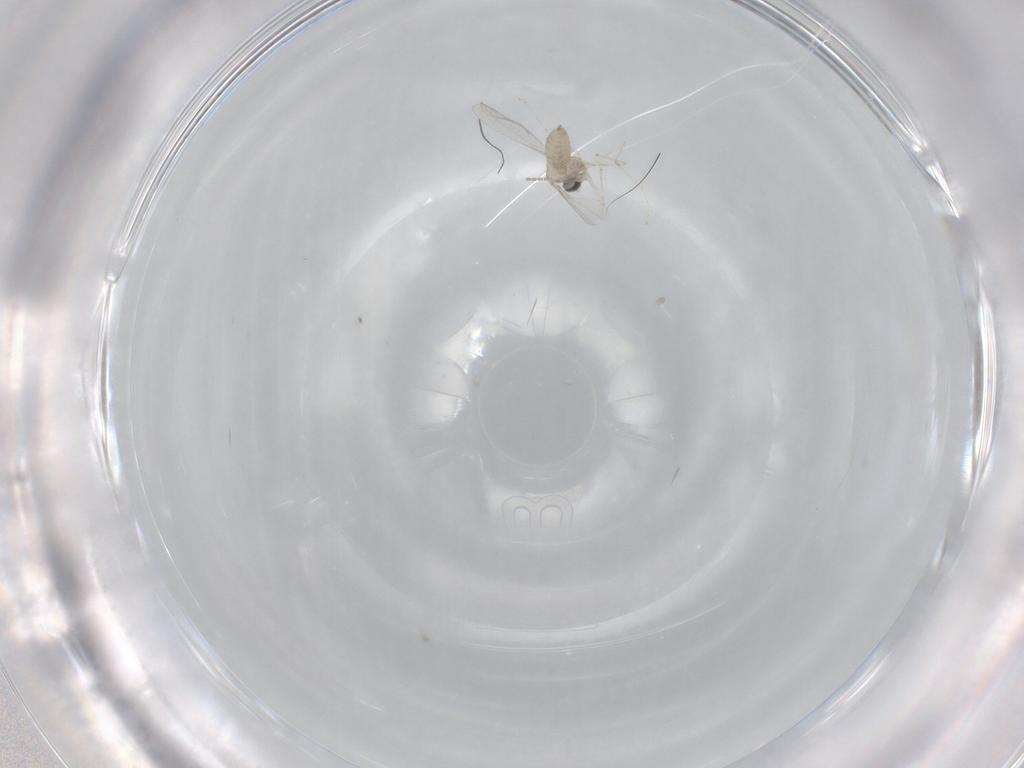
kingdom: Animalia
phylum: Arthropoda
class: Insecta
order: Diptera
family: Cecidomyiidae
